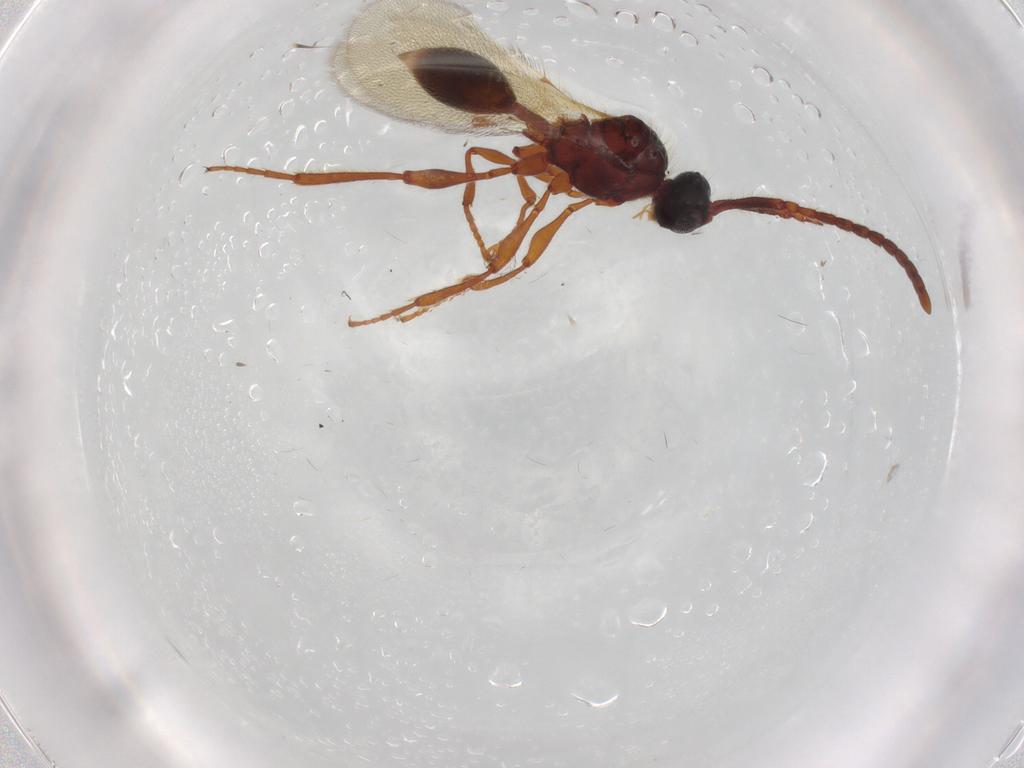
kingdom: Animalia
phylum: Arthropoda
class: Insecta
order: Hymenoptera
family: Diapriidae
